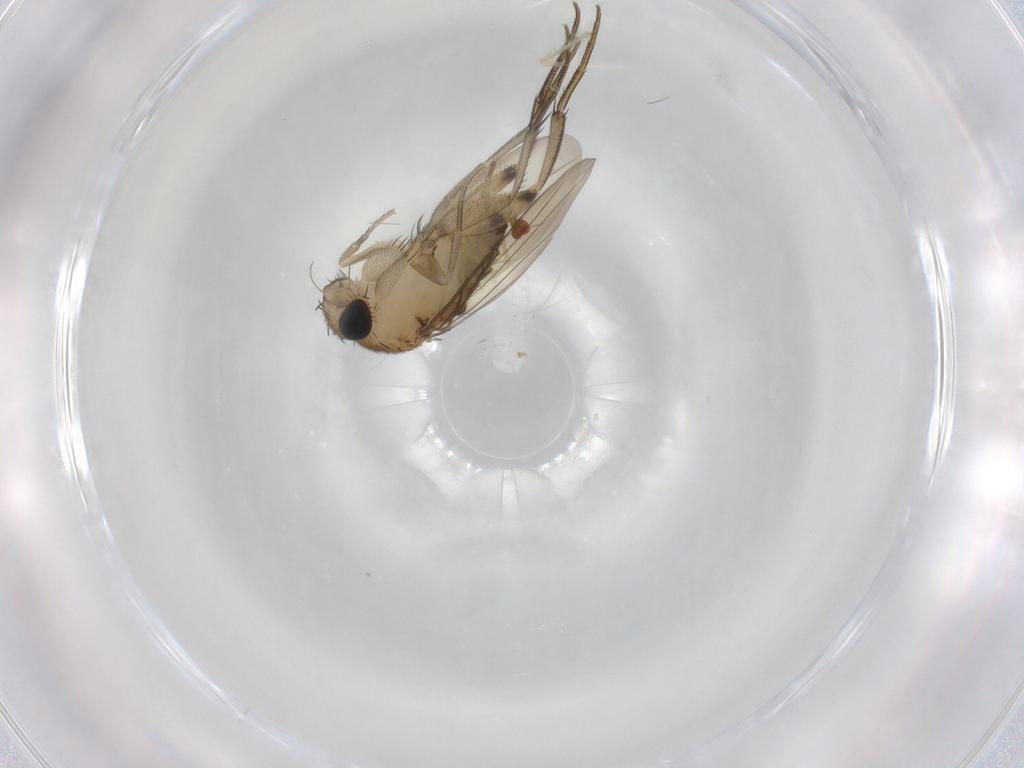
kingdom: Animalia
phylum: Arthropoda
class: Insecta
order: Diptera
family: Phoridae
